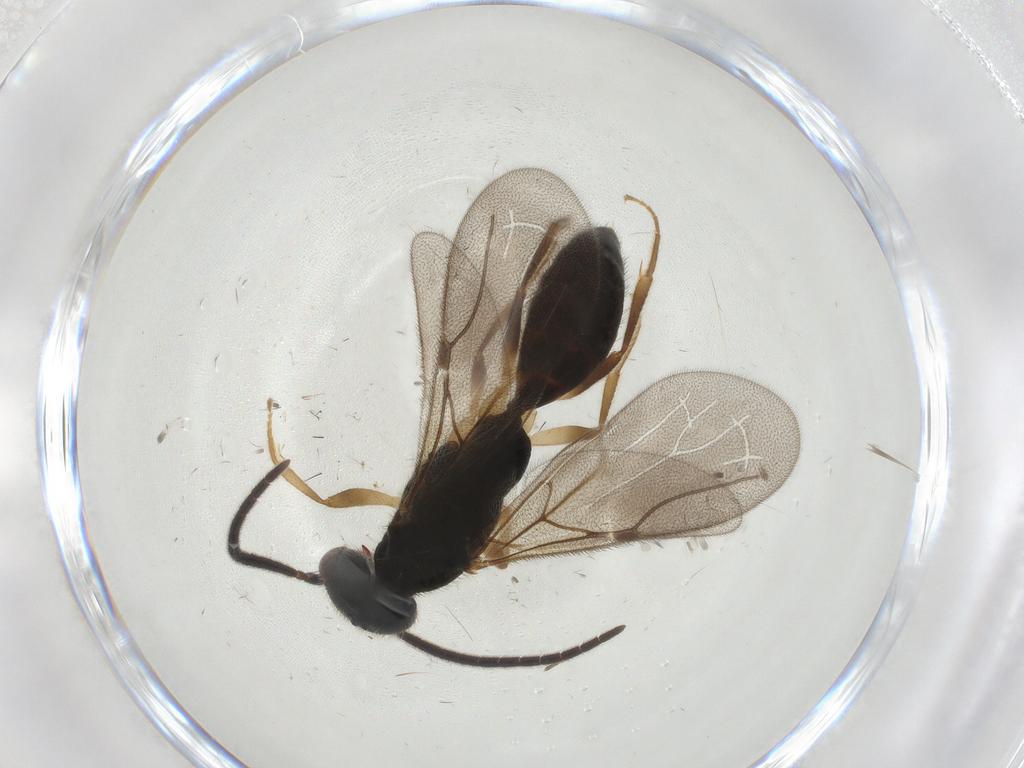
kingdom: Animalia
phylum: Arthropoda
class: Insecta
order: Hymenoptera
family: Bethylidae
